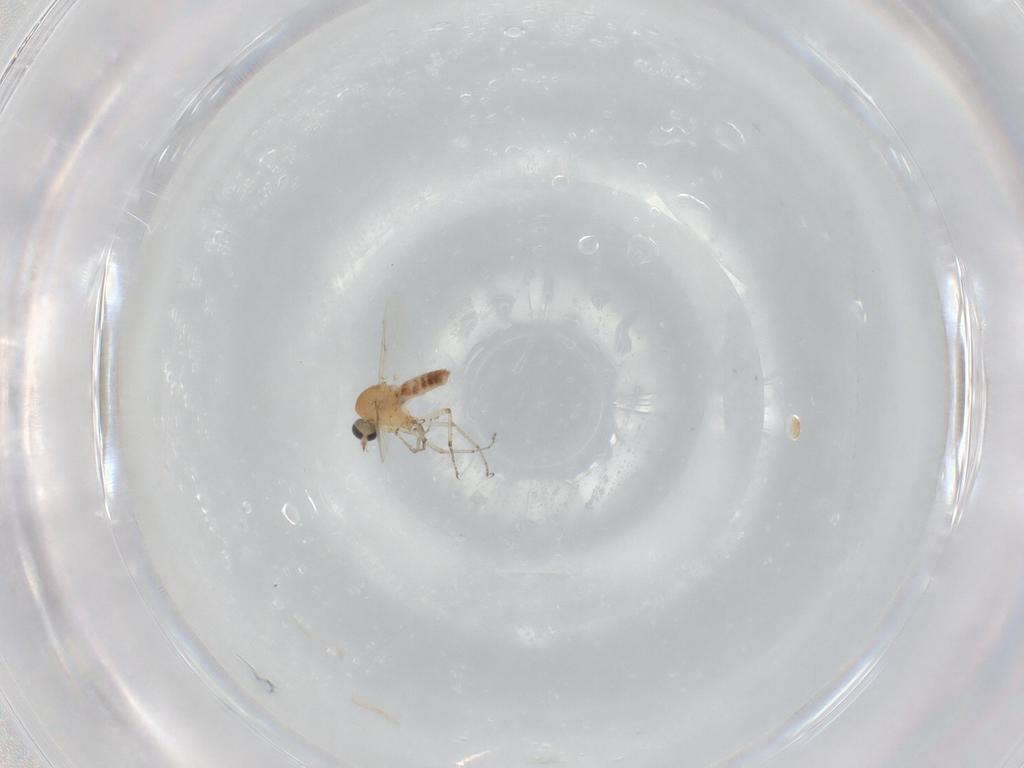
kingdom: Animalia
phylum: Arthropoda
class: Insecta
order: Diptera
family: Ceratopogonidae
